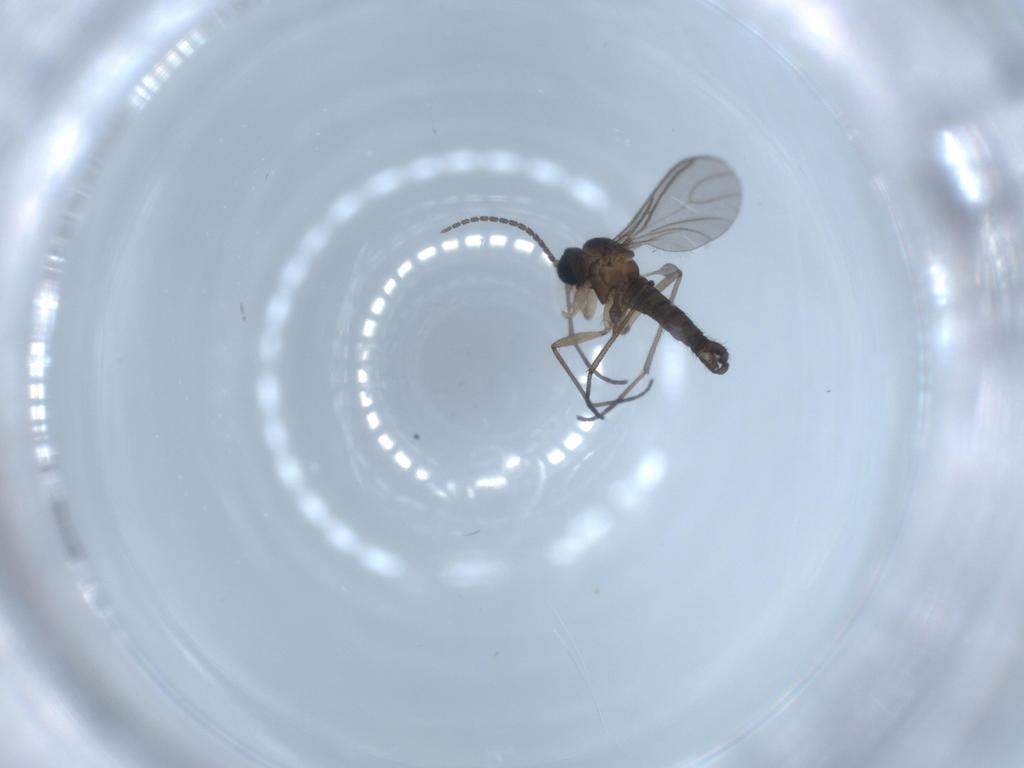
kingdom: Animalia
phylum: Arthropoda
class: Insecta
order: Diptera
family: Sciaridae
